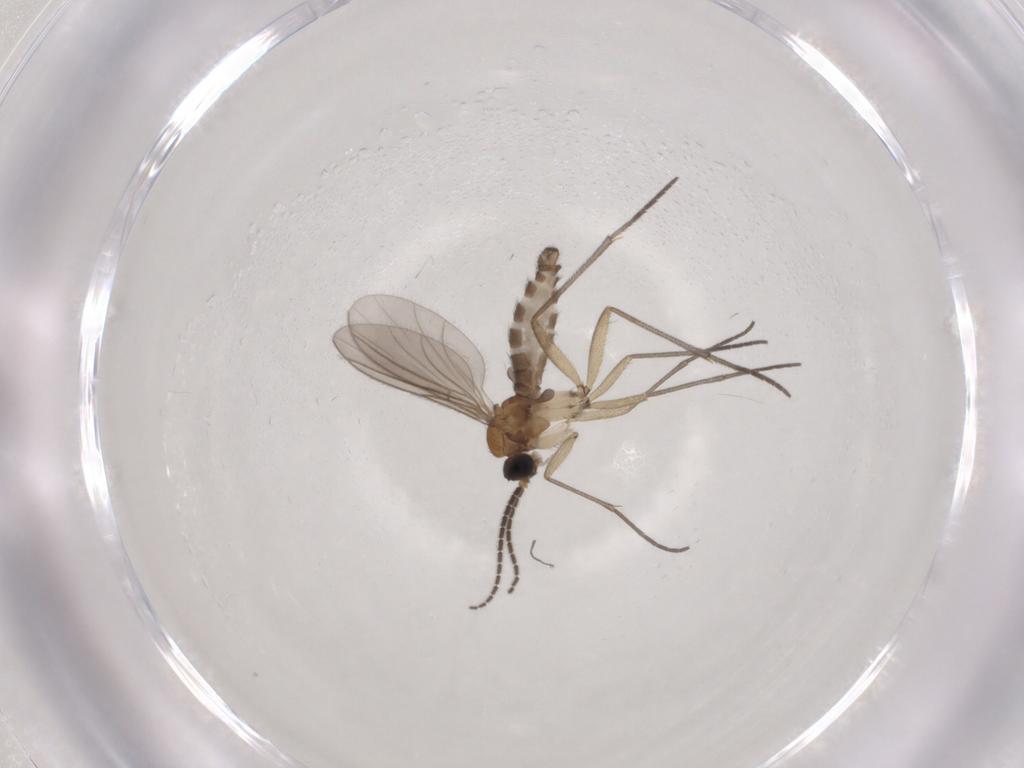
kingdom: Animalia
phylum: Arthropoda
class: Insecta
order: Diptera
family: Sciaridae
